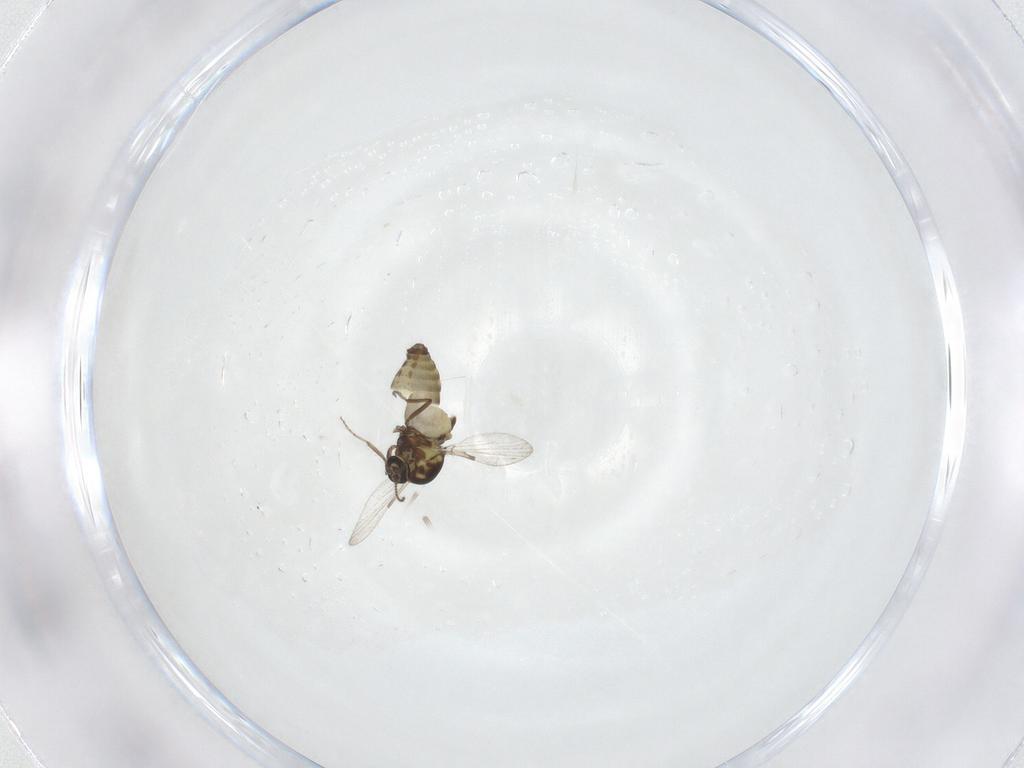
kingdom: Animalia
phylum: Arthropoda
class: Insecta
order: Diptera
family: Ceratopogonidae
